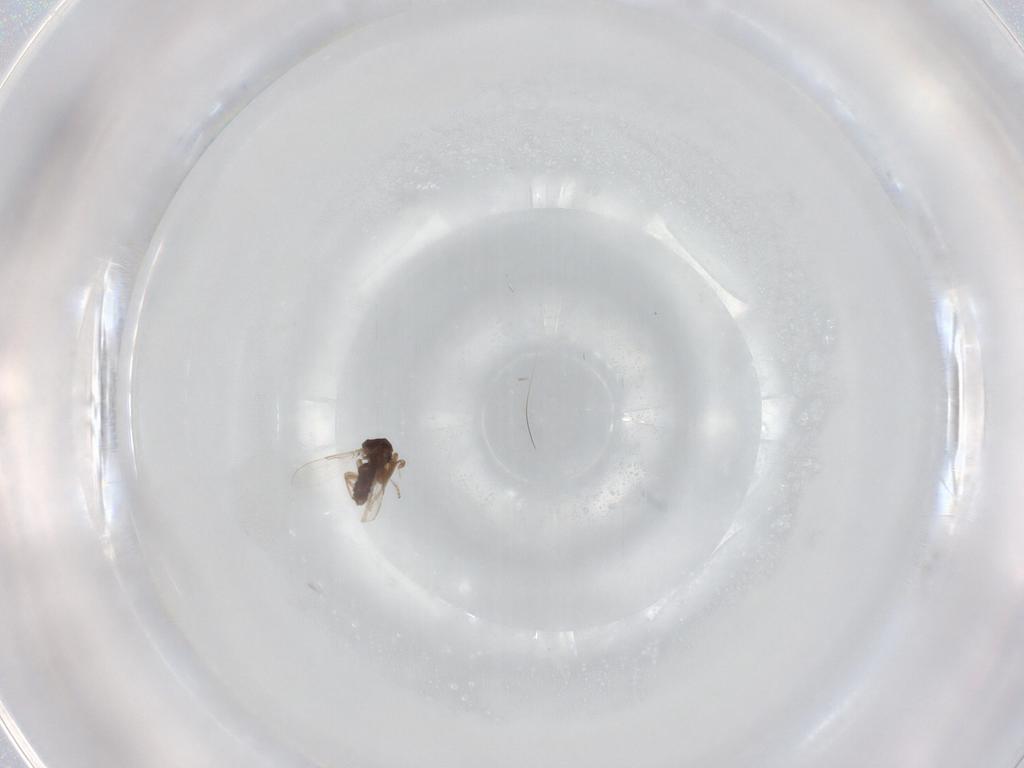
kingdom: Animalia
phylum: Arthropoda
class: Insecta
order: Diptera
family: Ceratopogonidae
